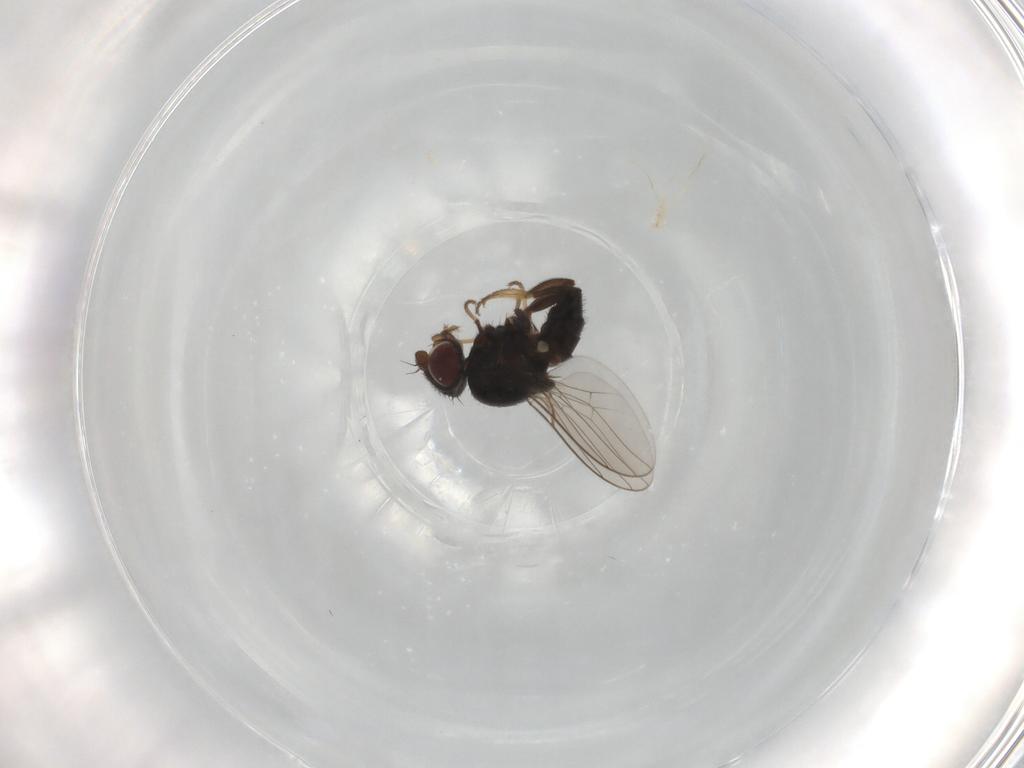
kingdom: Animalia
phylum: Arthropoda
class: Insecta
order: Diptera
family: Chloropidae
